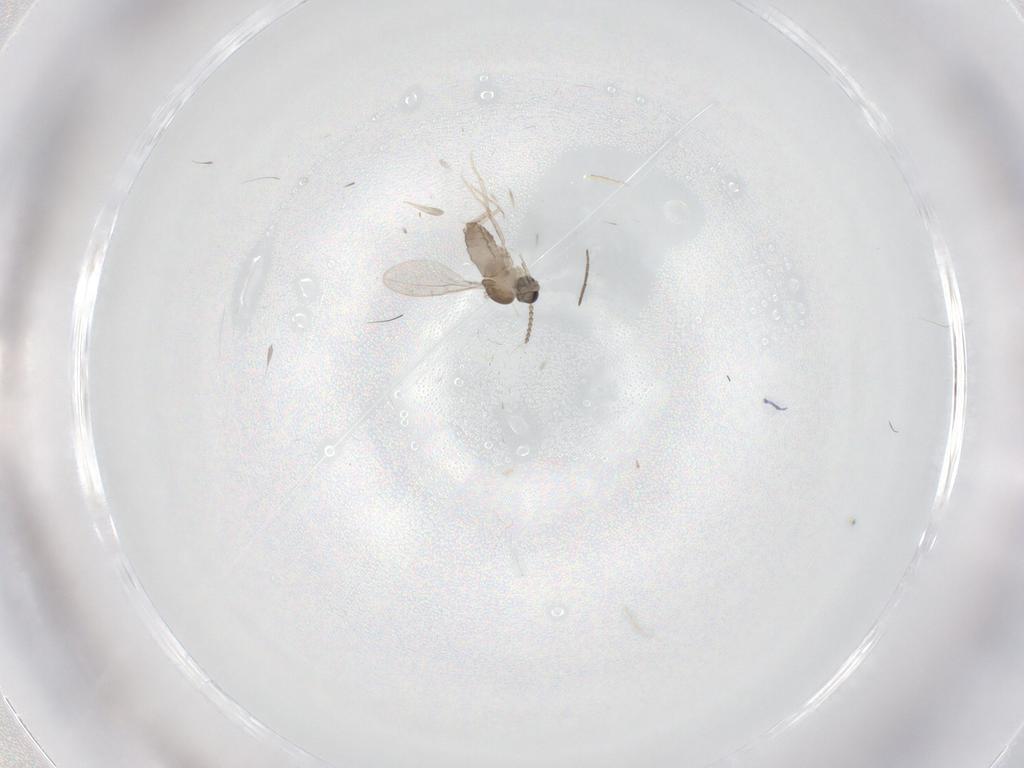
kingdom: Animalia
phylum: Arthropoda
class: Insecta
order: Diptera
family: Cecidomyiidae
